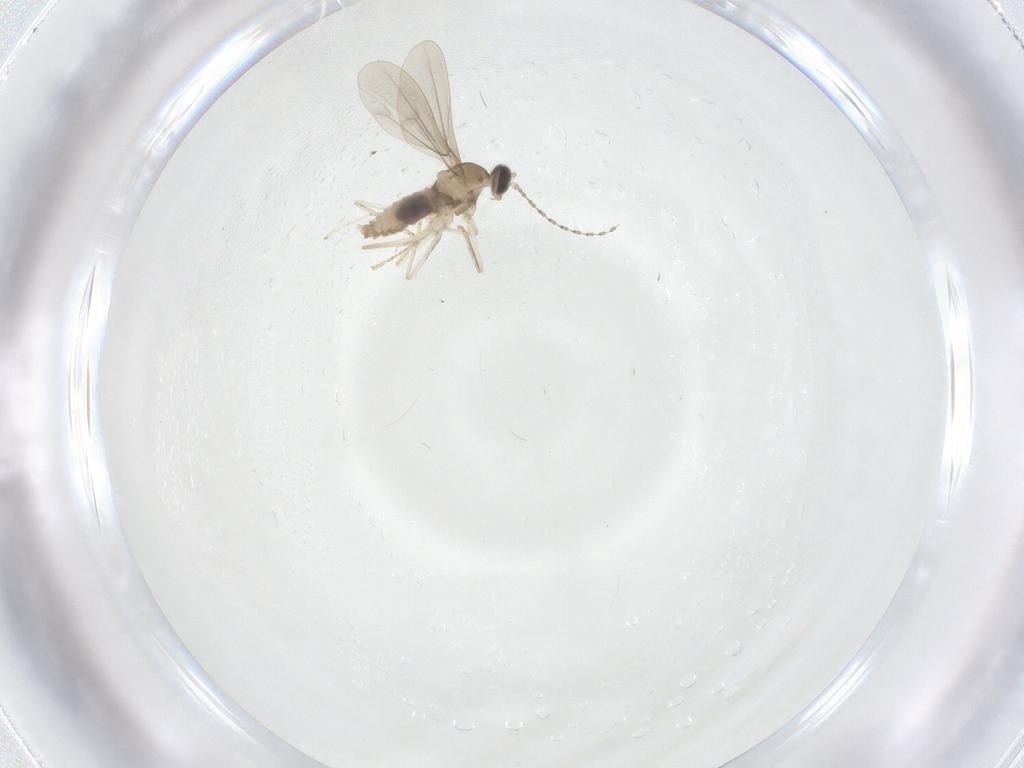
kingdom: Animalia
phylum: Arthropoda
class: Insecta
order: Diptera
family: Cecidomyiidae
